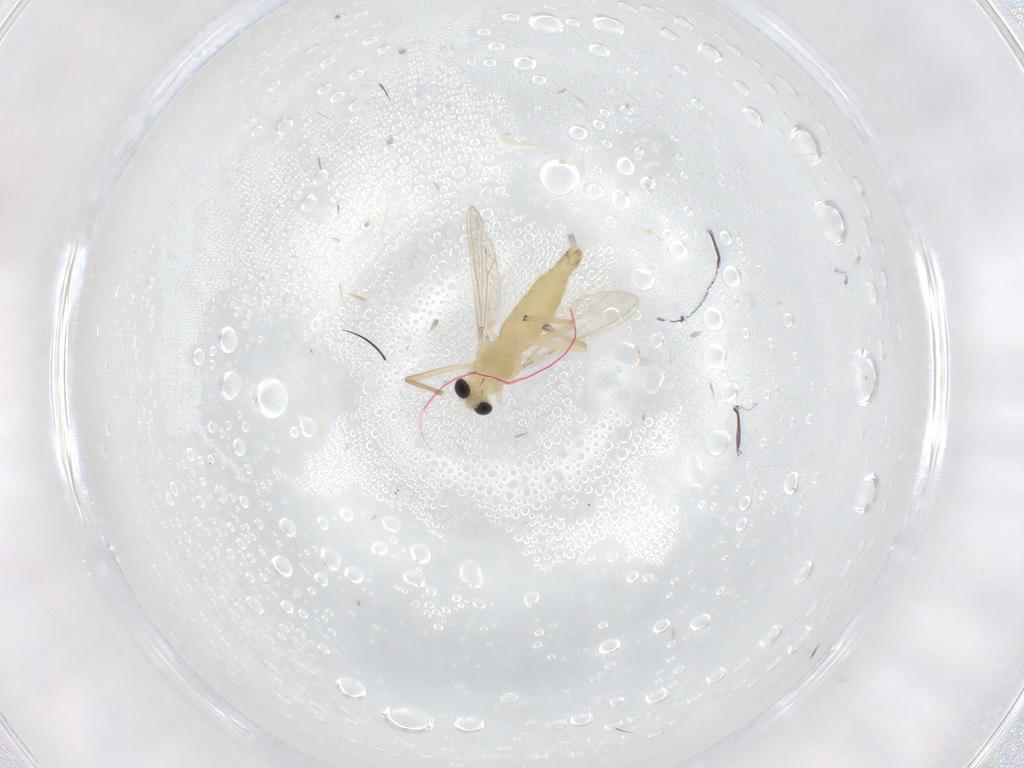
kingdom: Animalia
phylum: Arthropoda
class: Insecta
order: Diptera
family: Chironomidae
